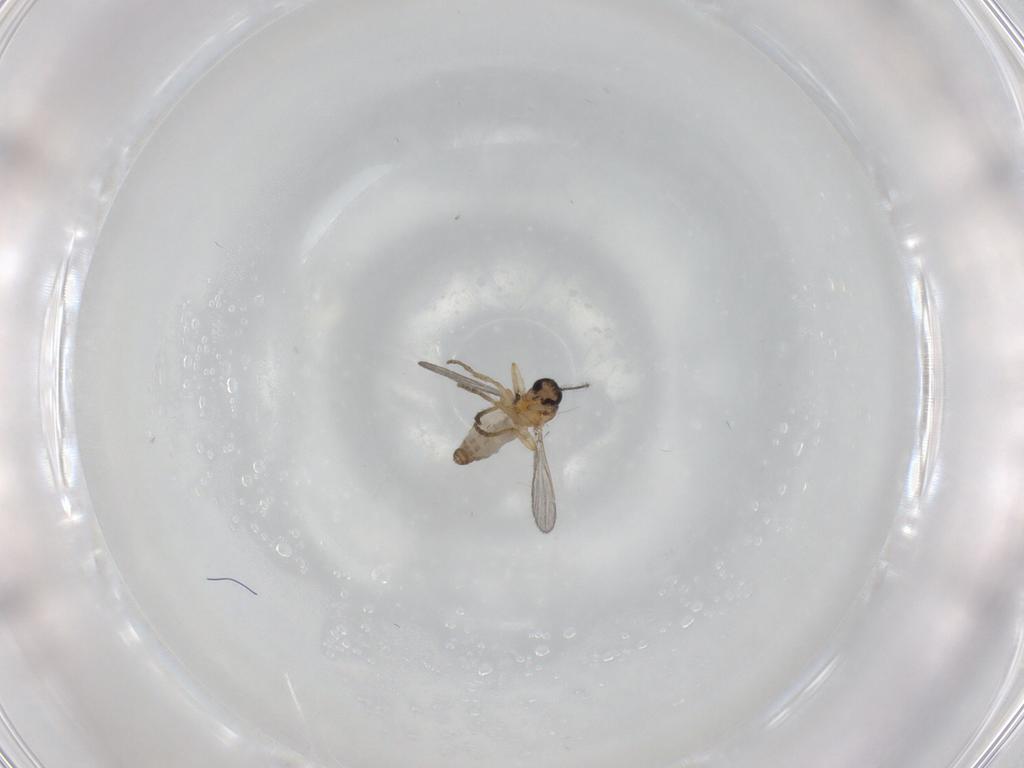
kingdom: Animalia
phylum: Arthropoda
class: Insecta
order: Diptera
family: Ceratopogonidae
